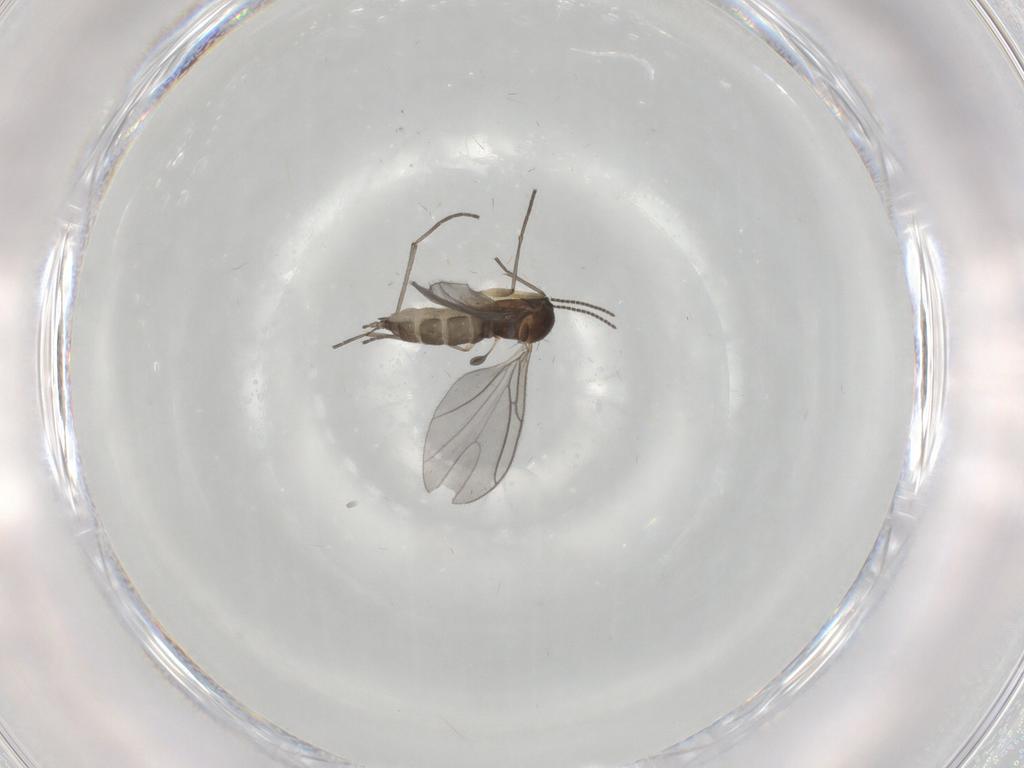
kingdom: Animalia
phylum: Arthropoda
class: Insecta
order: Diptera
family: Sciaridae
